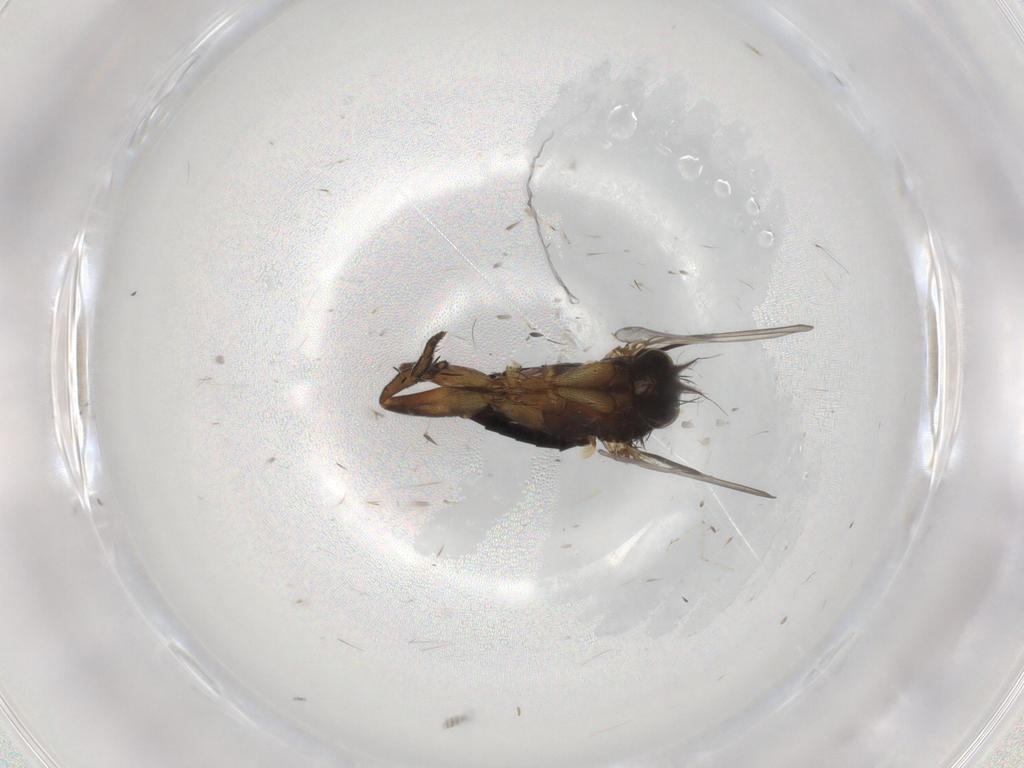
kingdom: Animalia
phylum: Arthropoda
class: Insecta
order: Diptera
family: Phoridae
